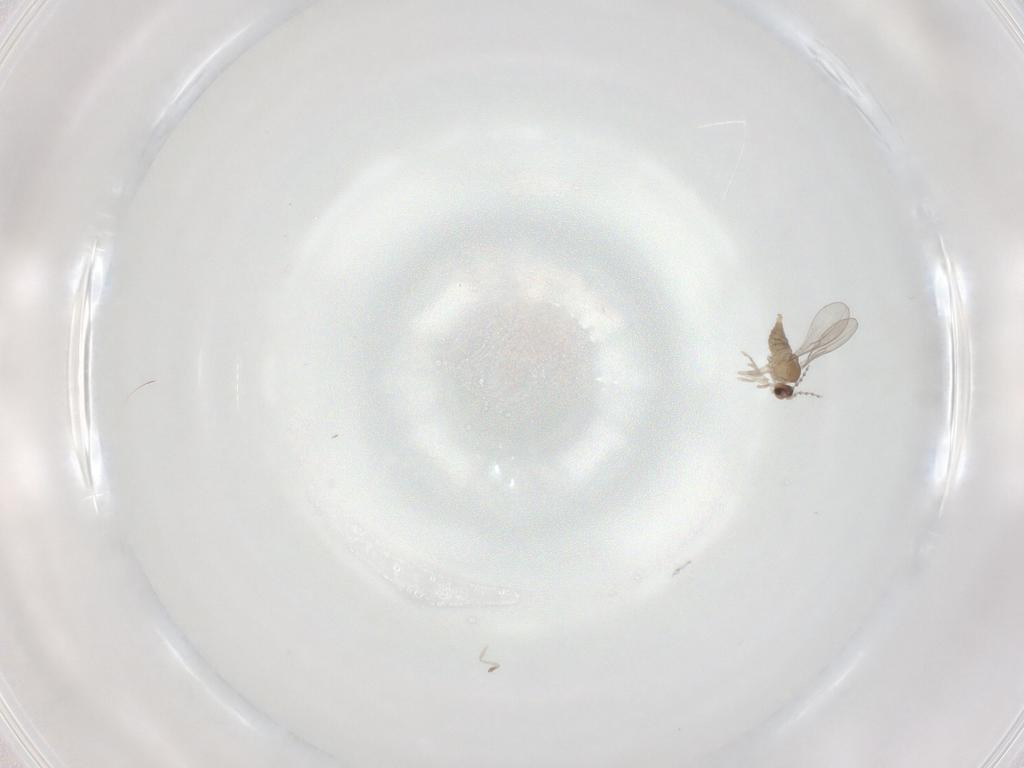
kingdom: Animalia
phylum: Arthropoda
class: Insecta
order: Diptera
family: Cecidomyiidae
